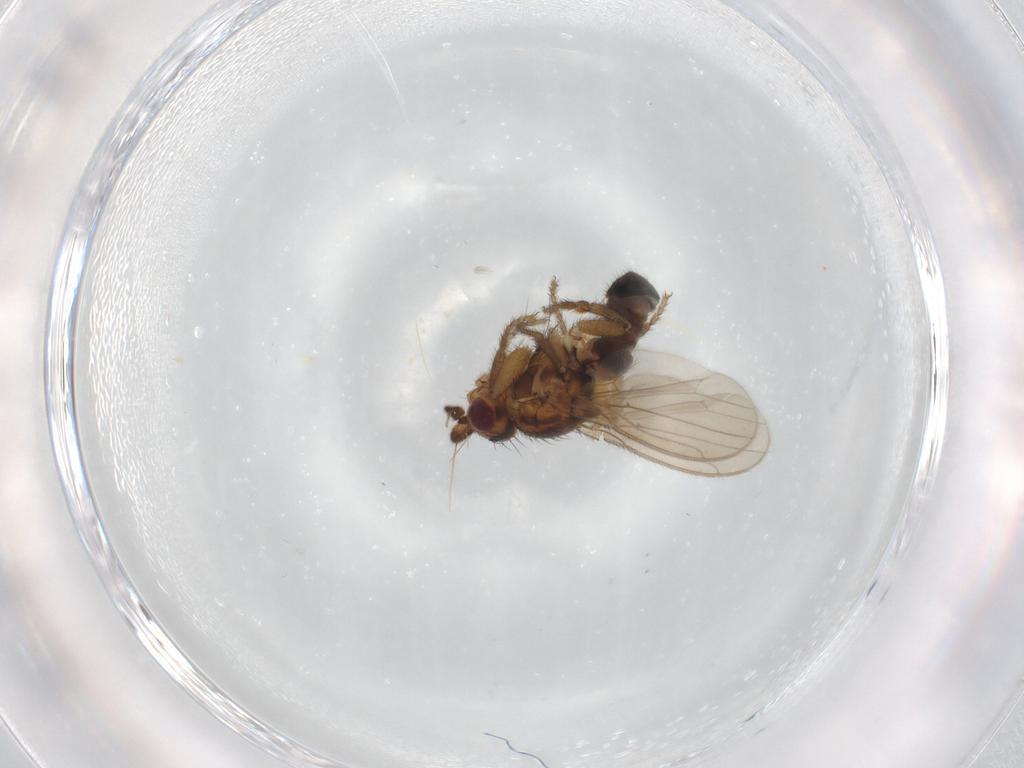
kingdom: Animalia
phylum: Arthropoda
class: Insecta
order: Diptera
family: Sphaeroceridae
